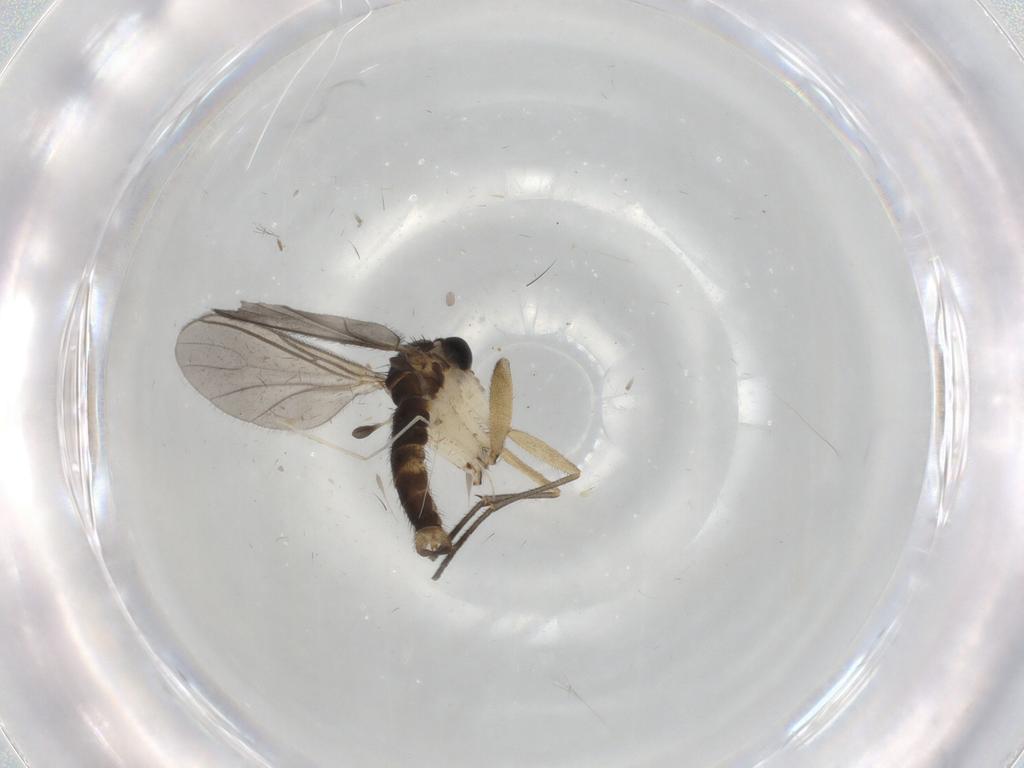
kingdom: Animalia
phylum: Arthropoda
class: Insecta
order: Diptera
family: Sciaridae
